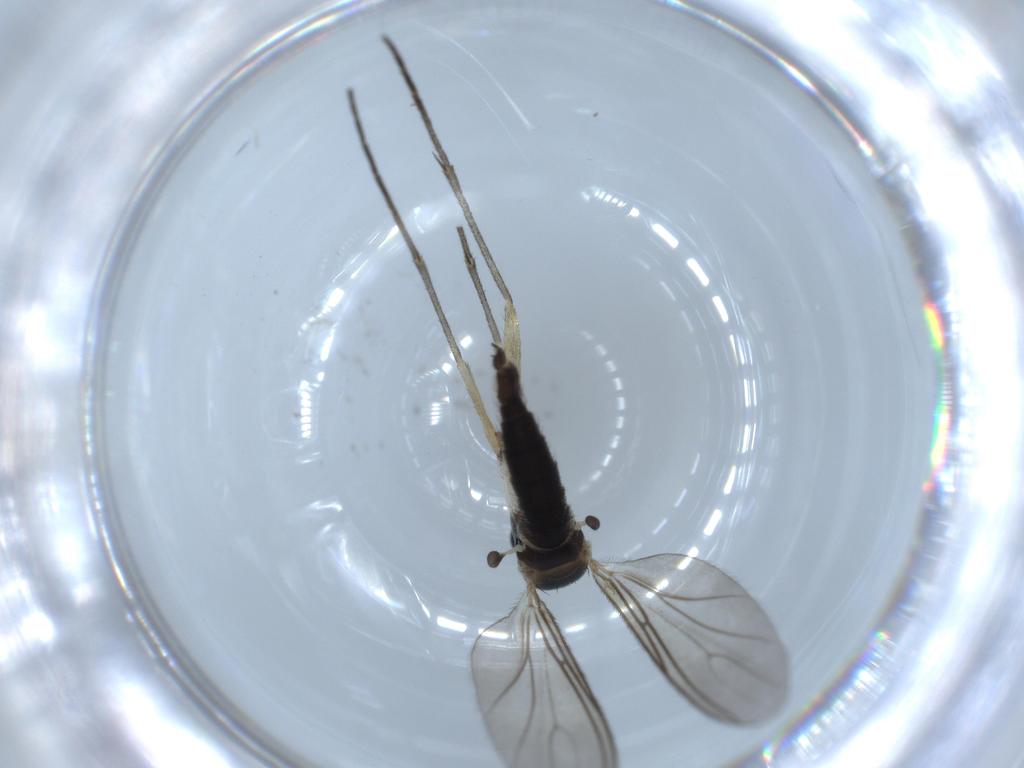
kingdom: Animalia
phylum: Arthropoda
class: Insecta
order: Diptera
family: Sciaridae
